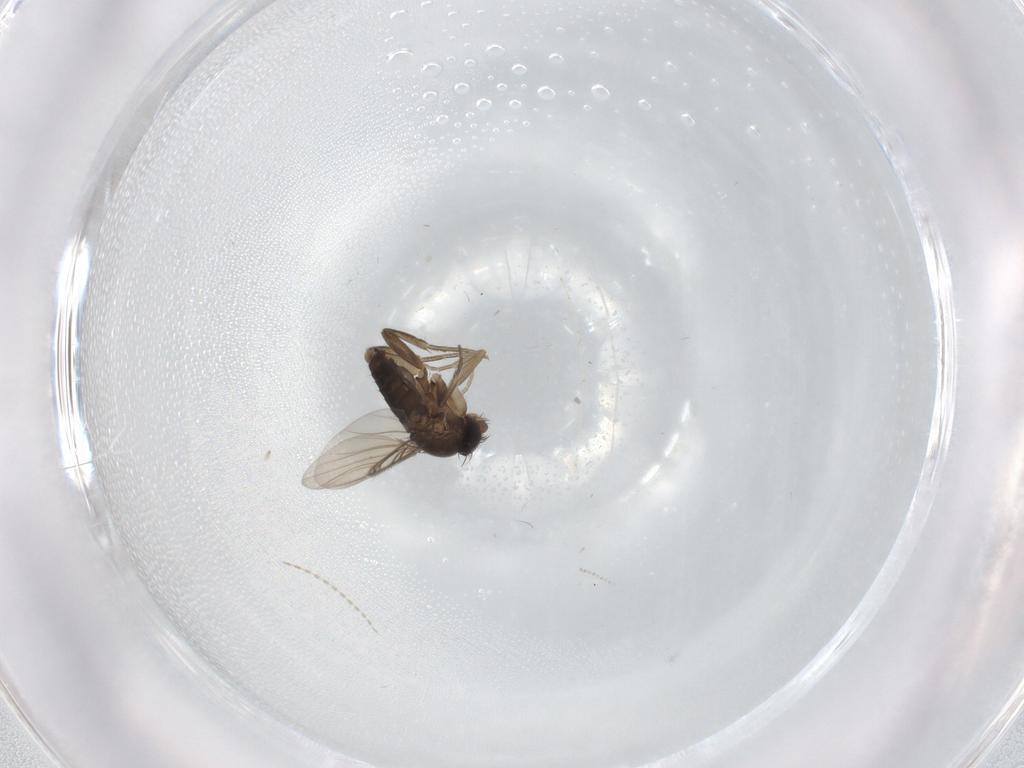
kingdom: Animalia
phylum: Arthropoda
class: Insecta
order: Diptera
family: Phoridae
